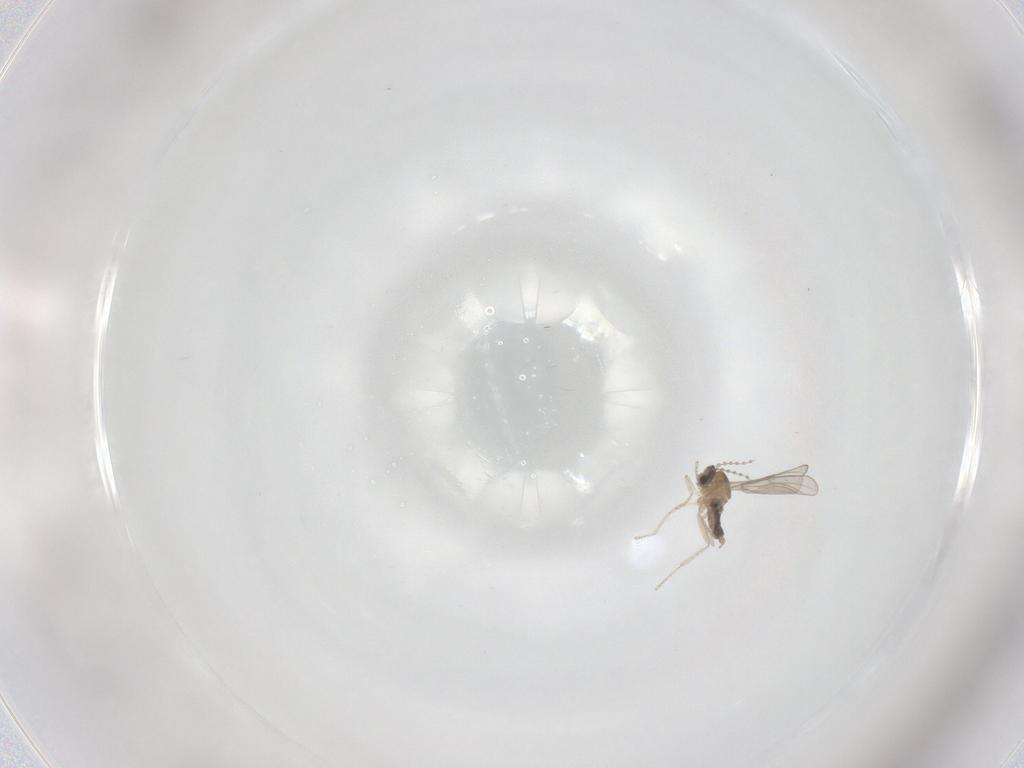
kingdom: Animalia
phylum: Arthropoda
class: Insecta
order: Diptera
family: Cecidomyiidae
